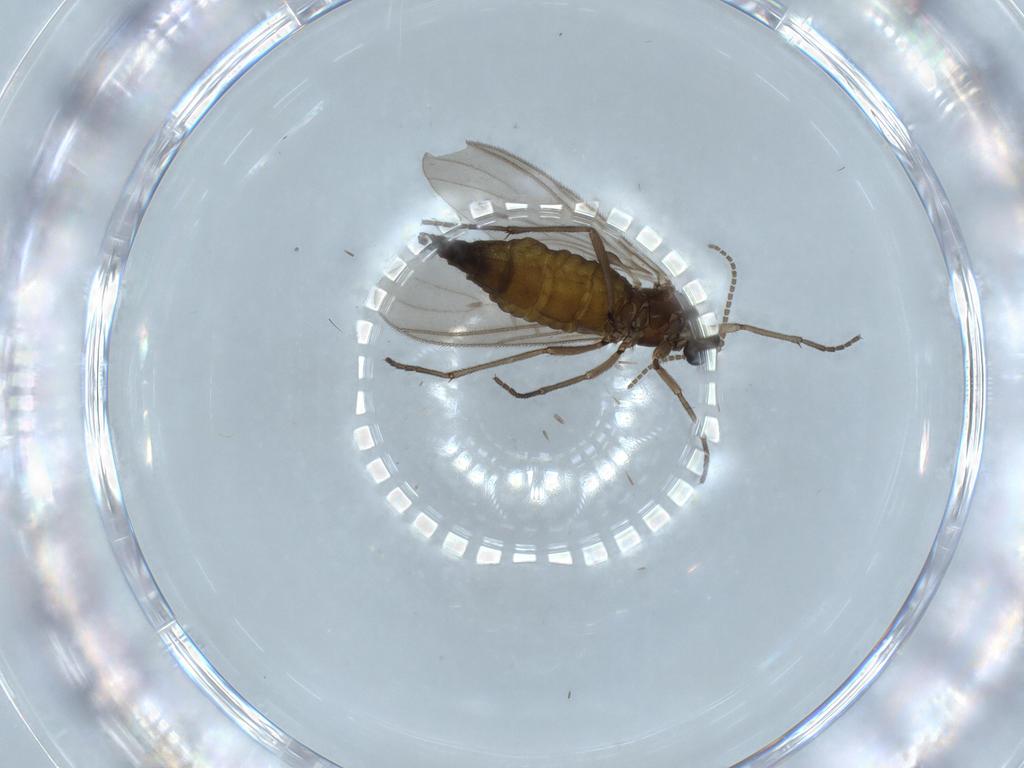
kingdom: Animalia
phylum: Arthropoda
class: Insecta
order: Diptera
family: Sciaridae
